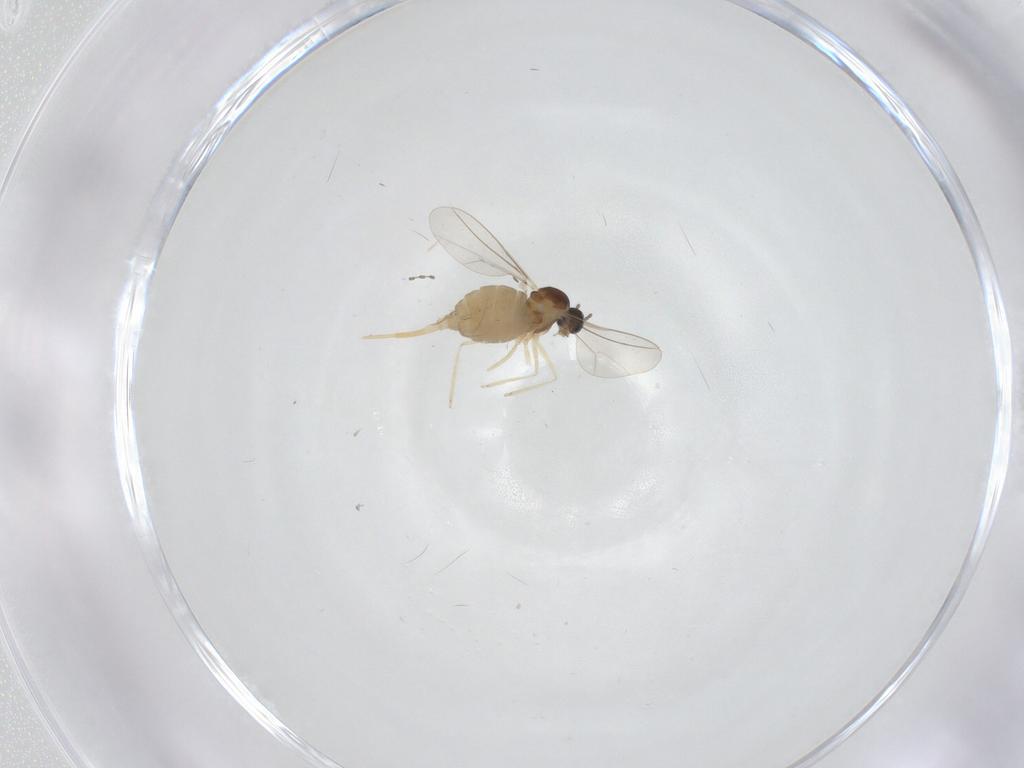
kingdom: Animalia
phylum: Arthropoda
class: Insecta
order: Diptera
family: Cecidomyiidae
